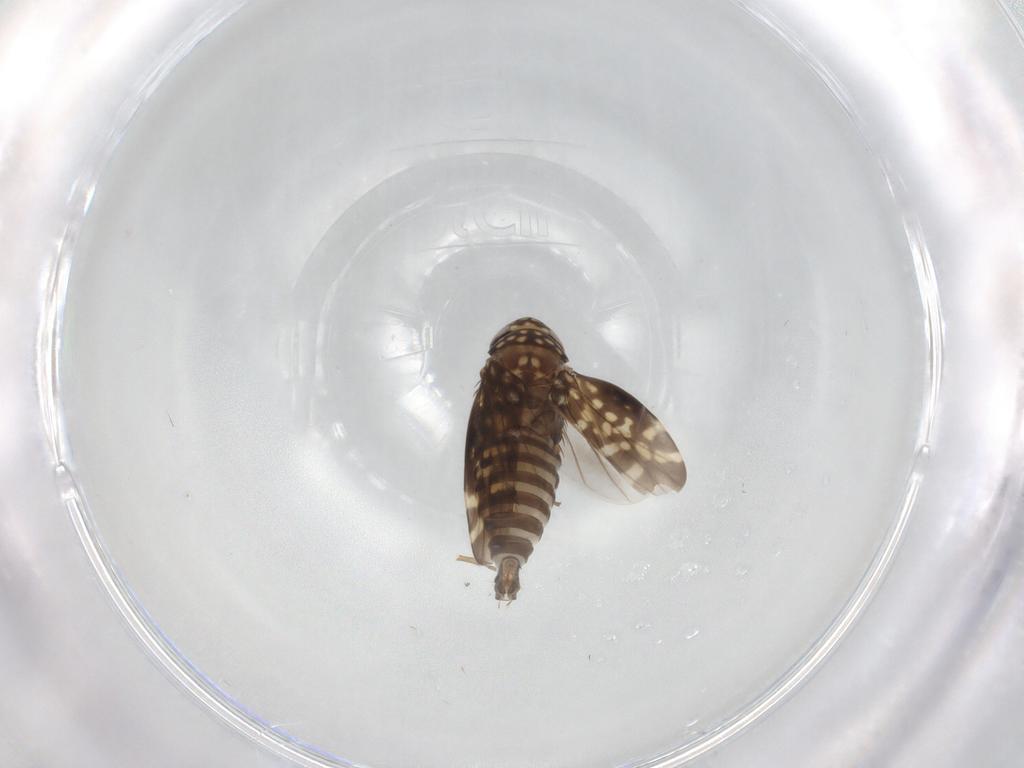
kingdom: Animalia
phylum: Arthropoda
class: Insecta
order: Hemiptera
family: Cicadellidae
